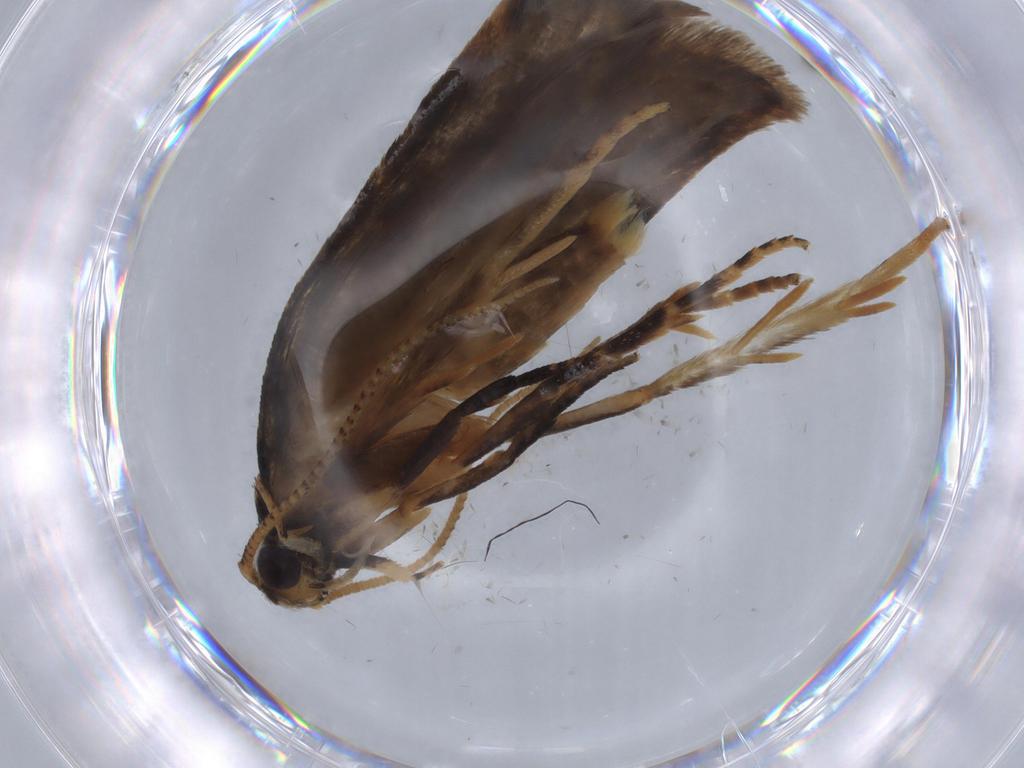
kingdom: Animalia
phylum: Arthropoda
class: Insecta
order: Lepidoptera
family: Oecophoridae
